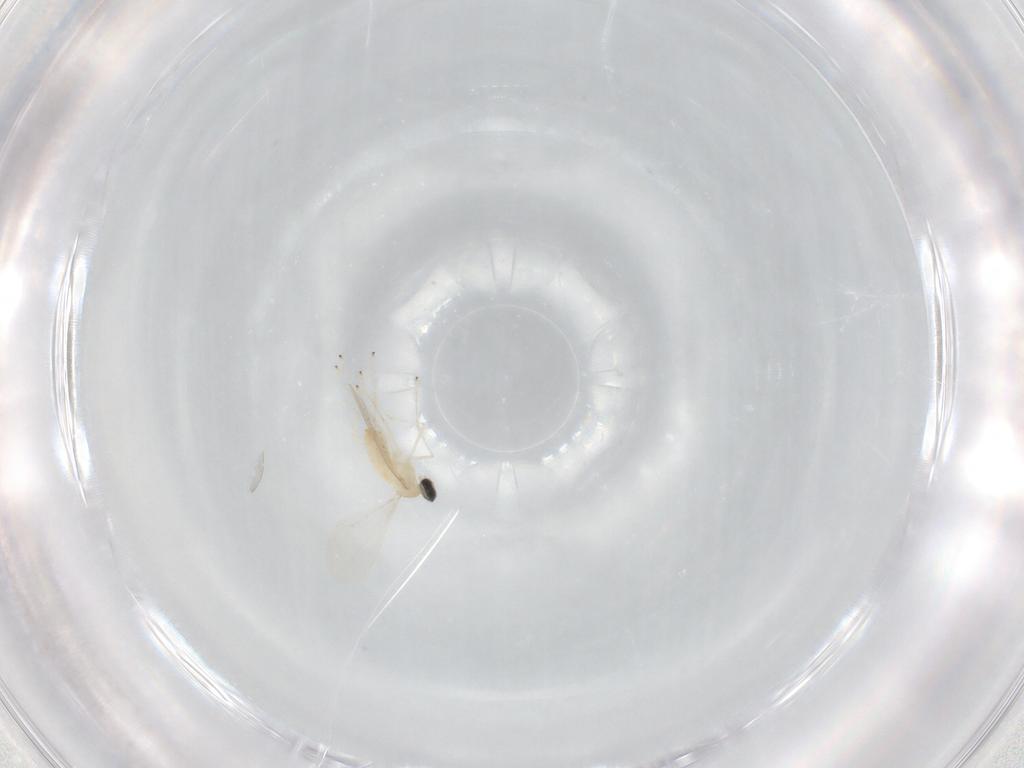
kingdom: Animalia
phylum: Arthropoda
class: Insecta
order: Diptera
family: Cecidomyiidae
